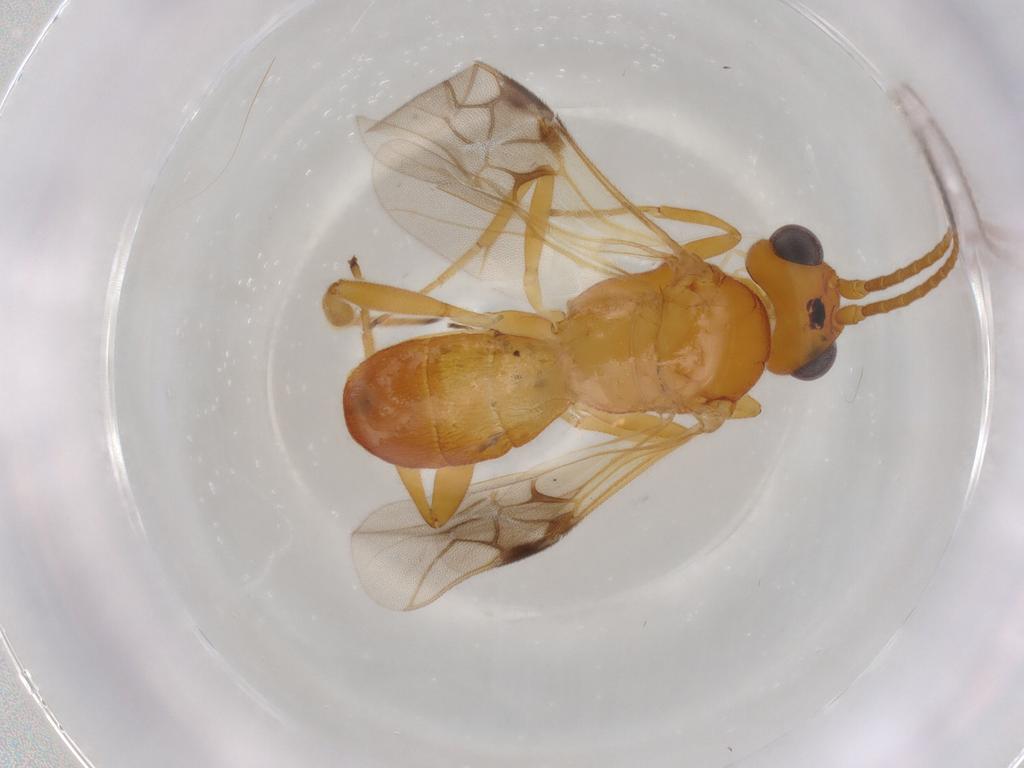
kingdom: Animalia
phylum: Arthropoda
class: Insecta
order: Hymenoptera
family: Braconidae
